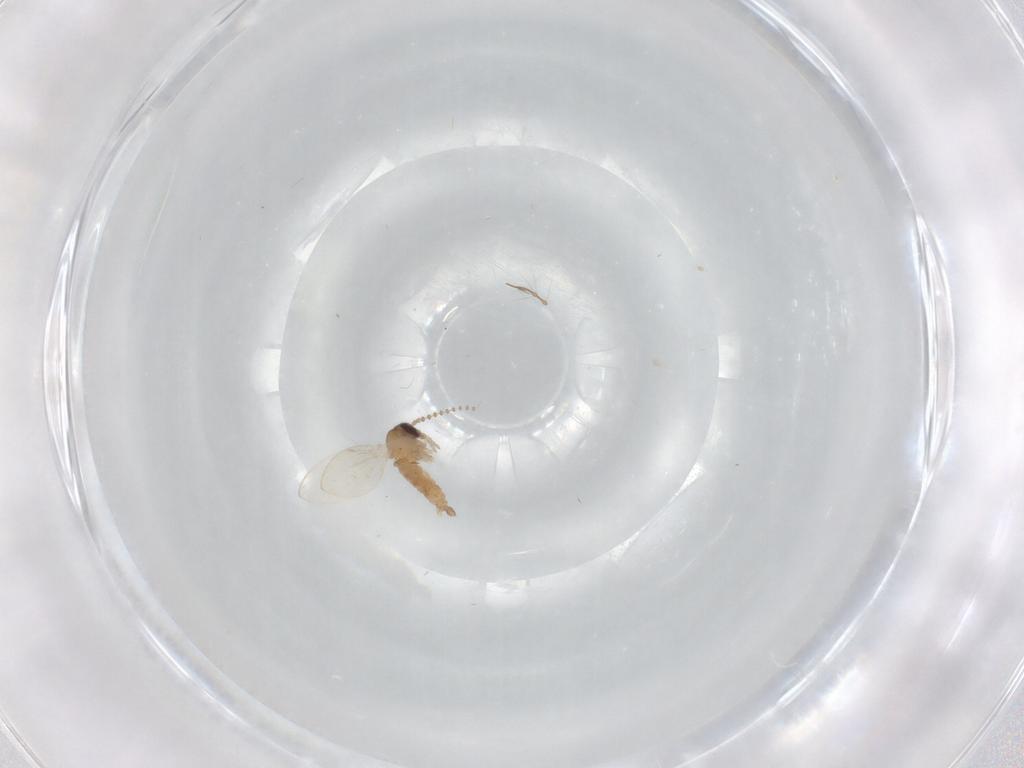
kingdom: Animalia
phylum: Arthropoda
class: Insecta
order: Diptera
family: Psychodidae
